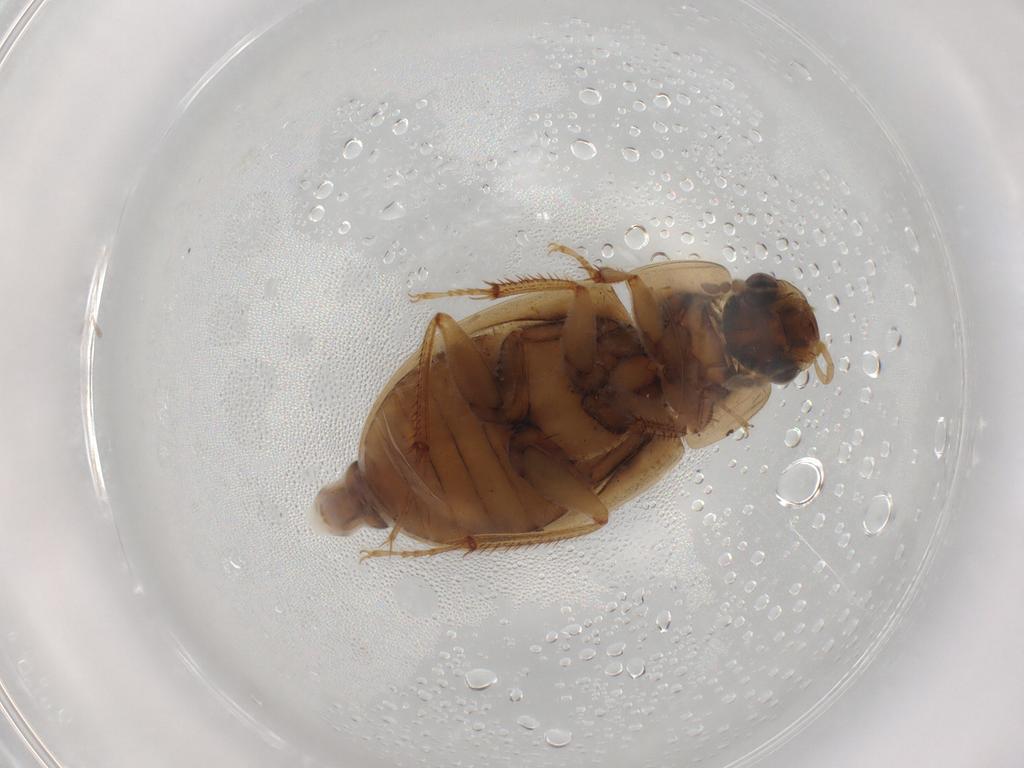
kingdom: Animalia
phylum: Arthropoda
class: Insecta
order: Coleoptera
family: Hydrophilidae
